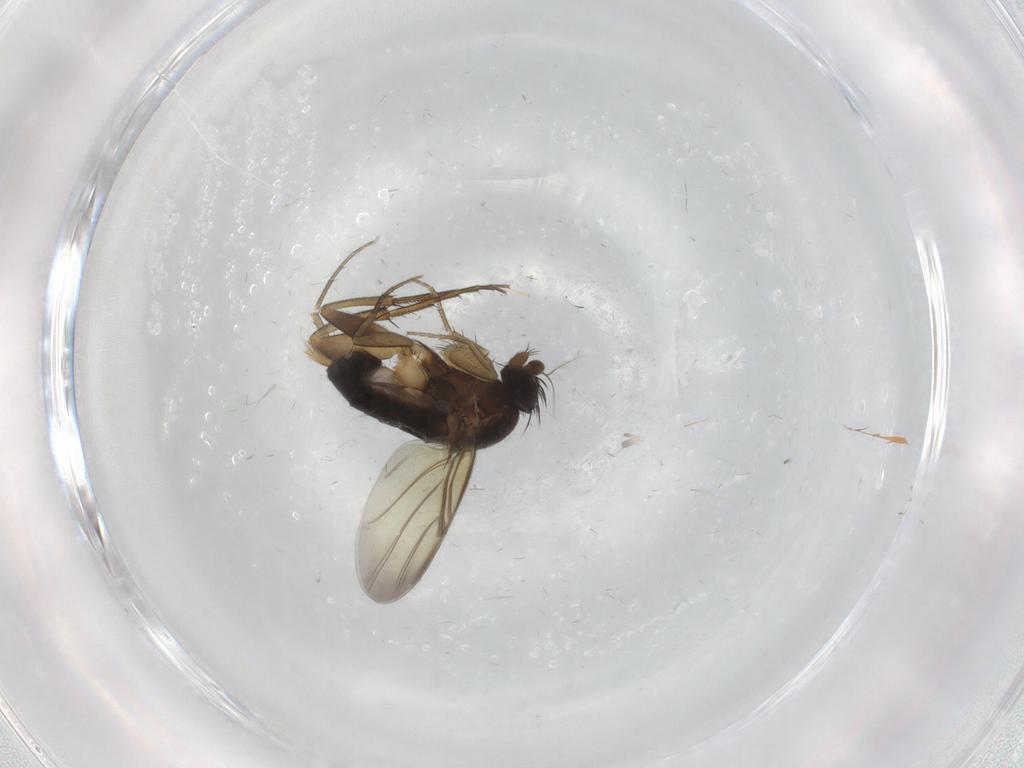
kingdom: Animalia
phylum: Arthropoda
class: Insecta
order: Diptera
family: Phoridae
